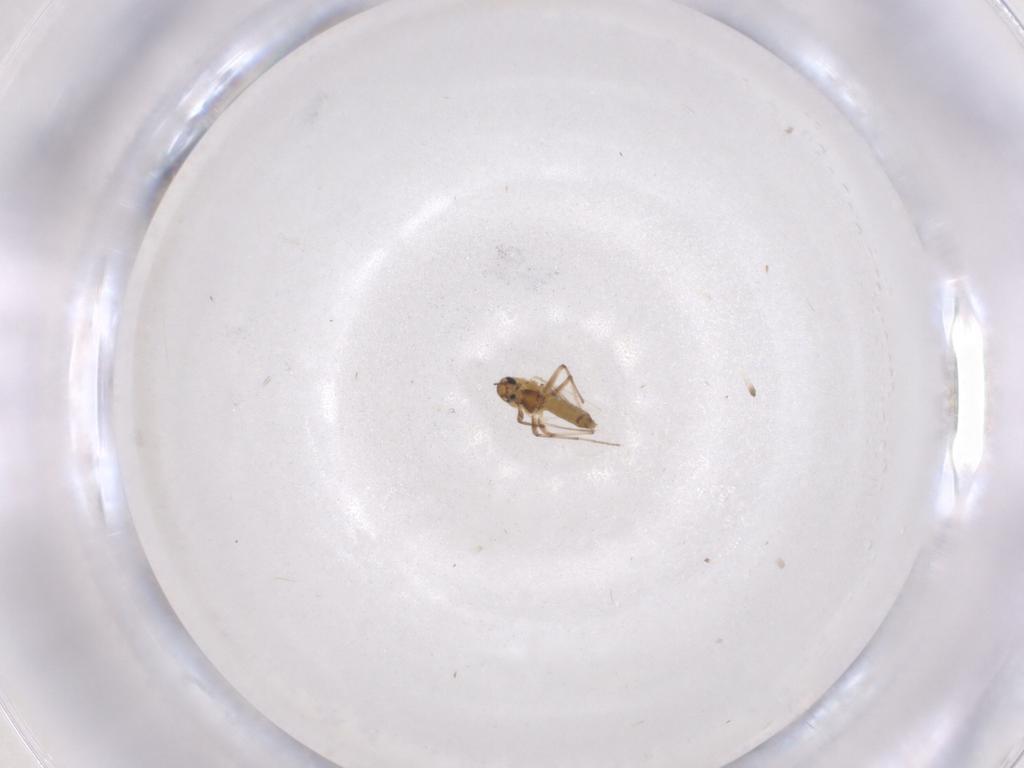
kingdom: Animalia
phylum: Arthropoda
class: Insecta
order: Diptera
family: Chironomidae
